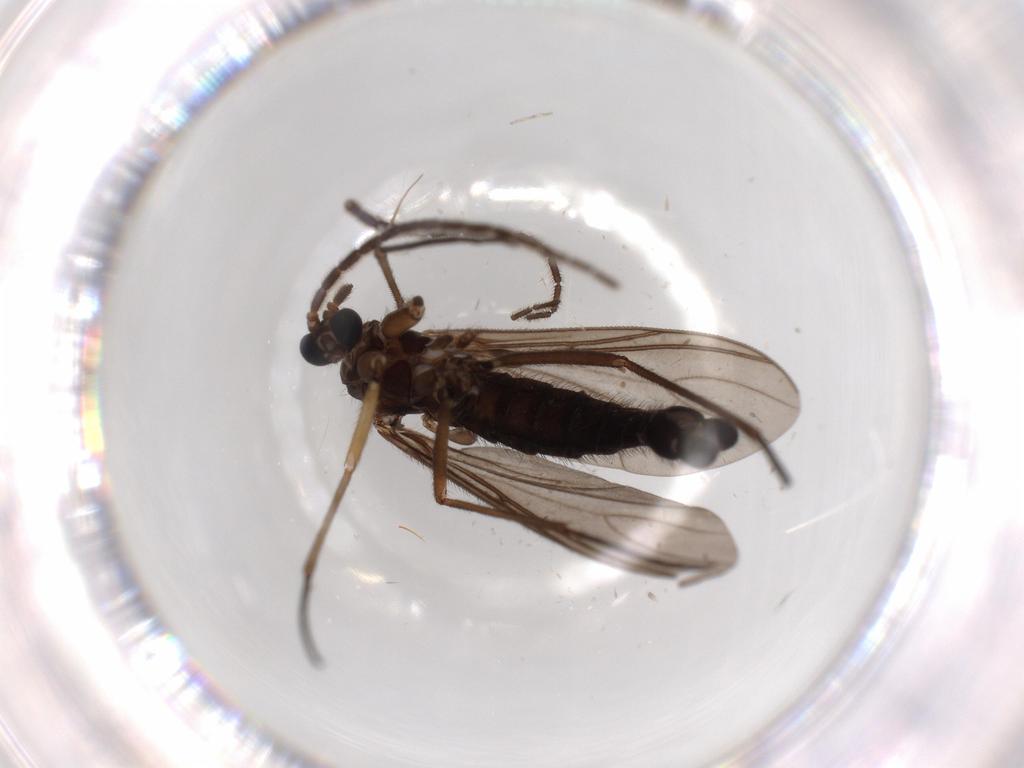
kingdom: Animalia
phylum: Arthropoda
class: Insecta
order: Diptera
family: Sciaridae
